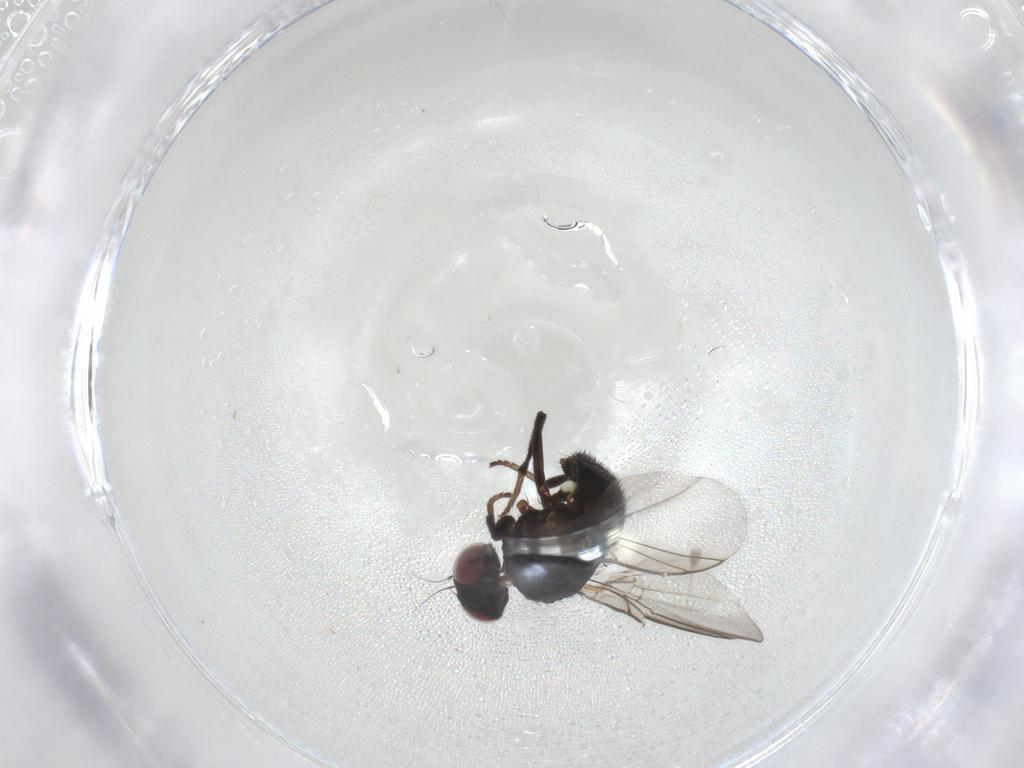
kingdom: Animalia
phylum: Arthropoda
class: Insecta
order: Diptera
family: Agromyzidae
